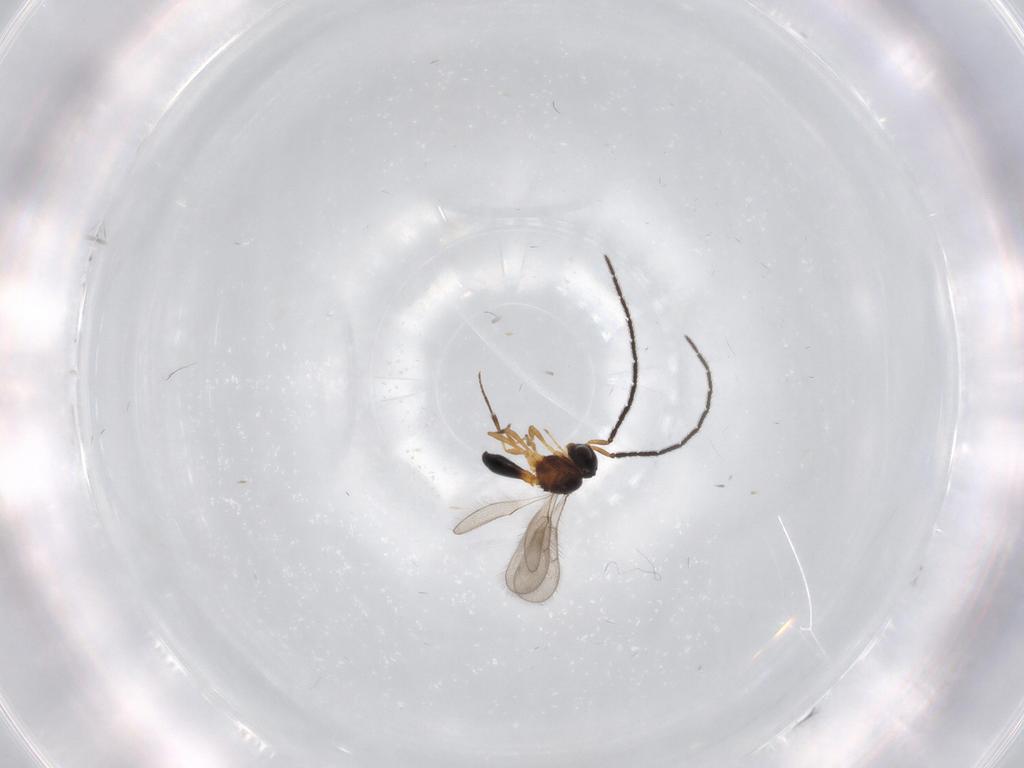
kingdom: Animalia
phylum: Arthropoda
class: Insecta
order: Hymenoptera
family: Scelionidae
